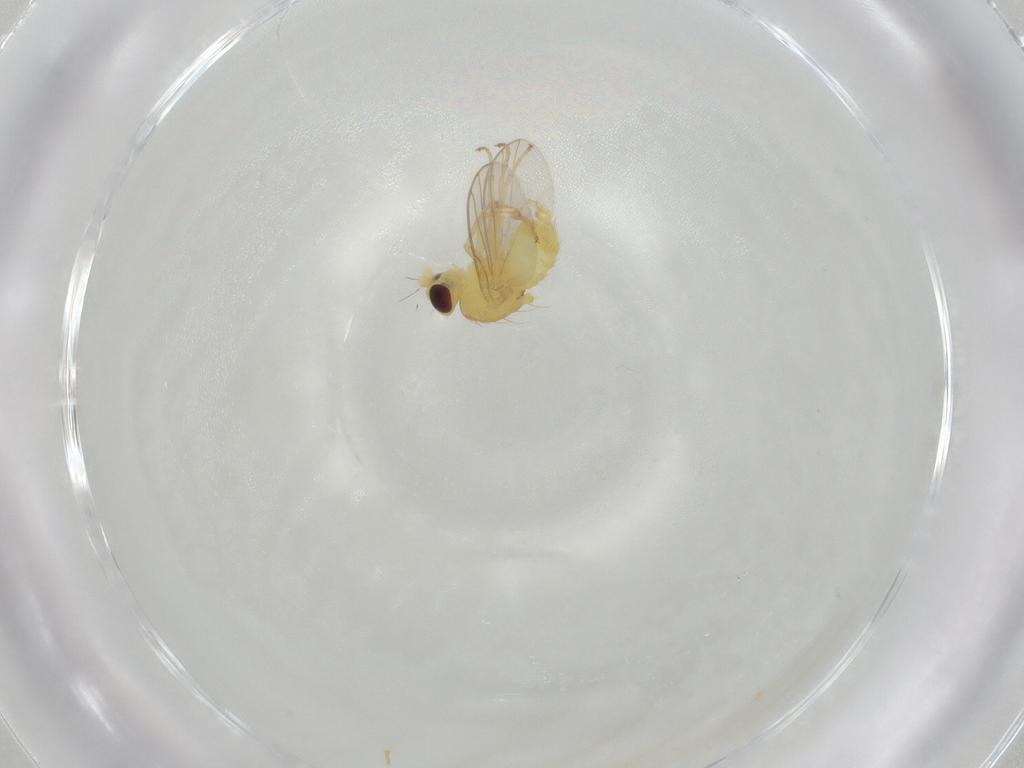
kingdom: Animalia
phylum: Arthropoda
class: Insecta
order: Diptera
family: Agromyzidae
